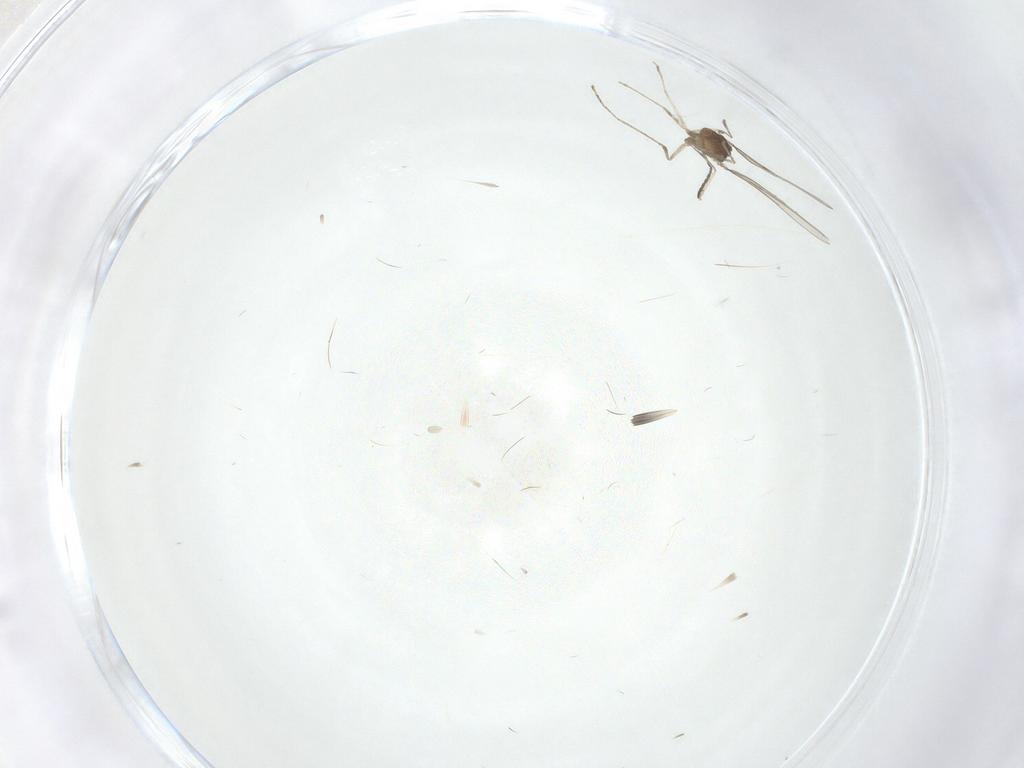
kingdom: Animalia
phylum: Arthropoda
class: Insecta
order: Diptera
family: Cecidomyiidae
